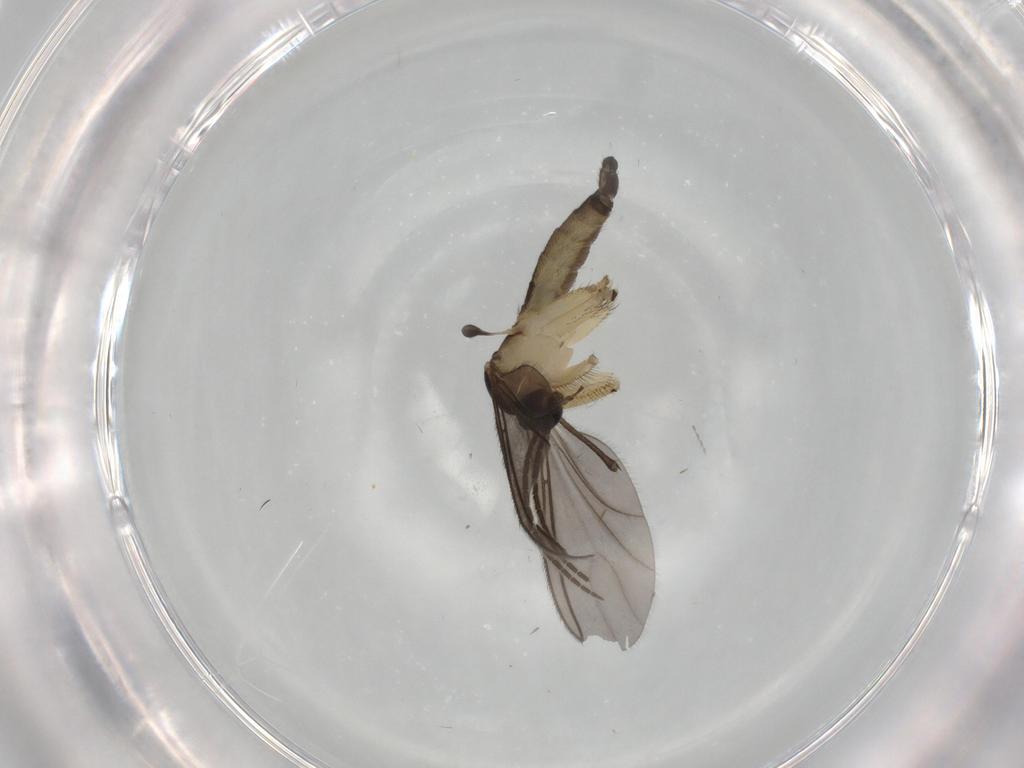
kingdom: Animalia
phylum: Arthropoda
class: Insecta
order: Diptera
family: Sciaridae
